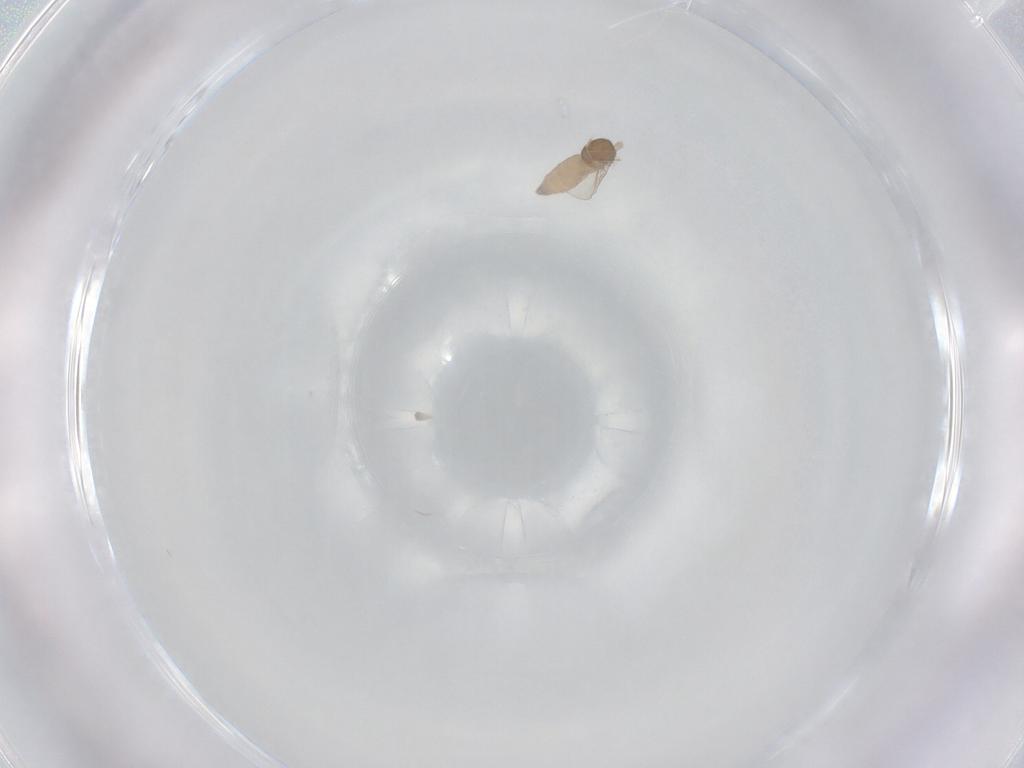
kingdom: Animalia
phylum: Arthropoda
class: Insecta
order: Diptera
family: Cecidomyiidae
